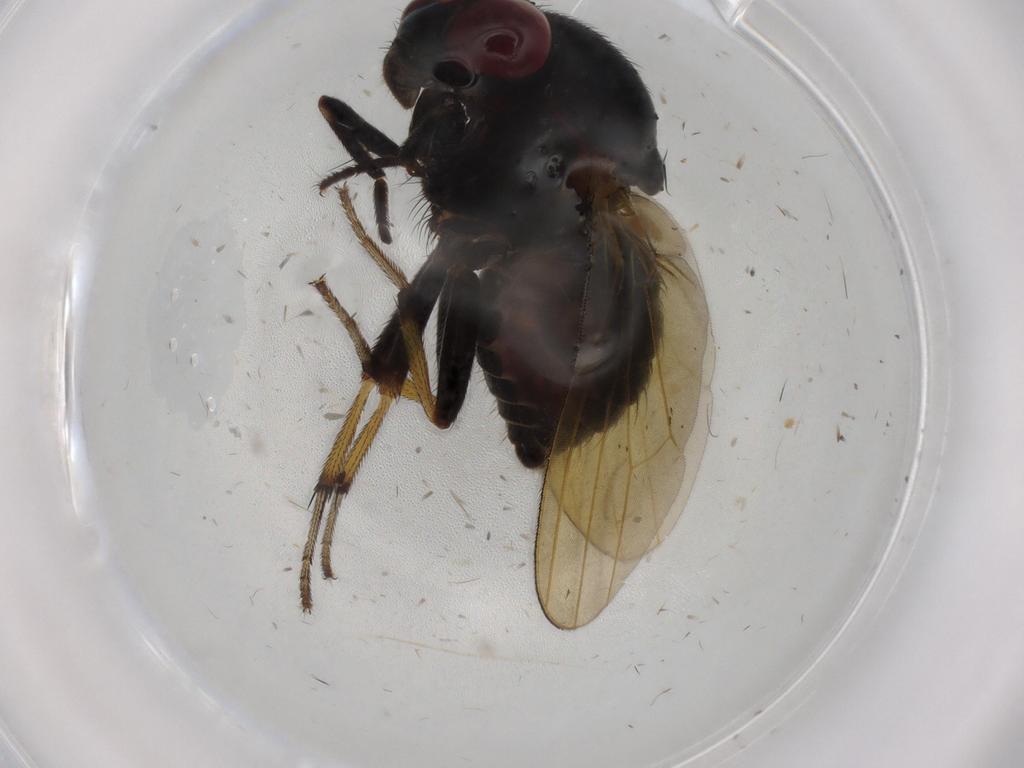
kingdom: Animalia
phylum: Arthropoda
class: Insecta
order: Diptera
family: Cecidomyiidae
